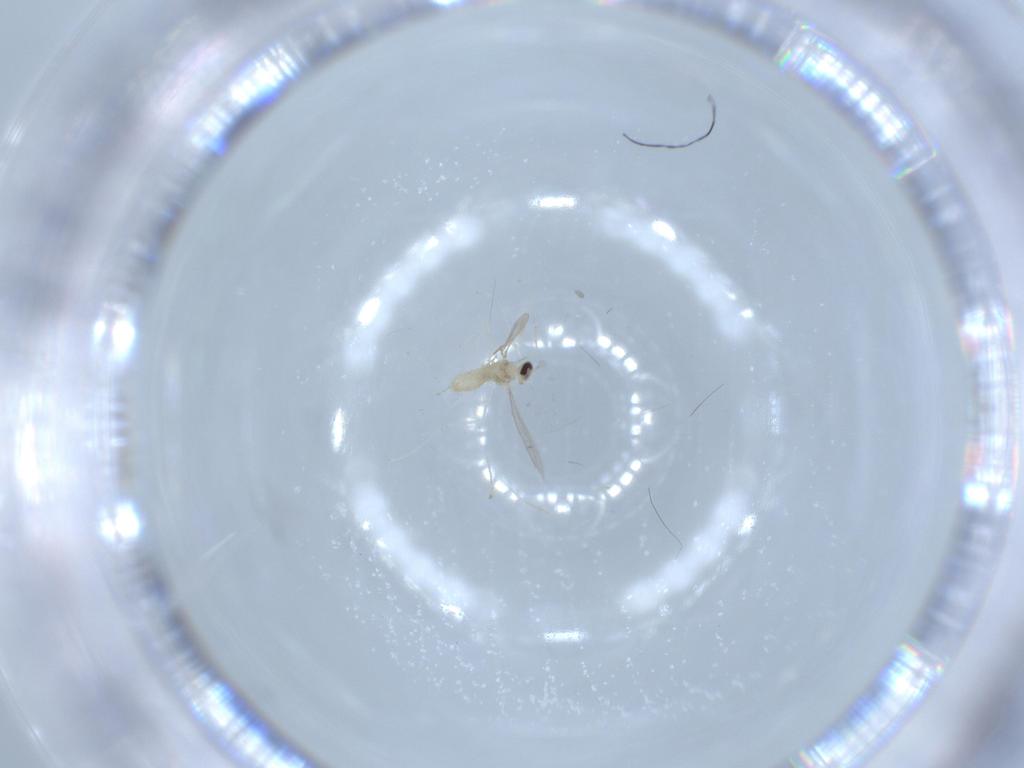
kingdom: Animalia
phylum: Arthropoda
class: Insecta
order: Diptera
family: Cecidomyiidae
